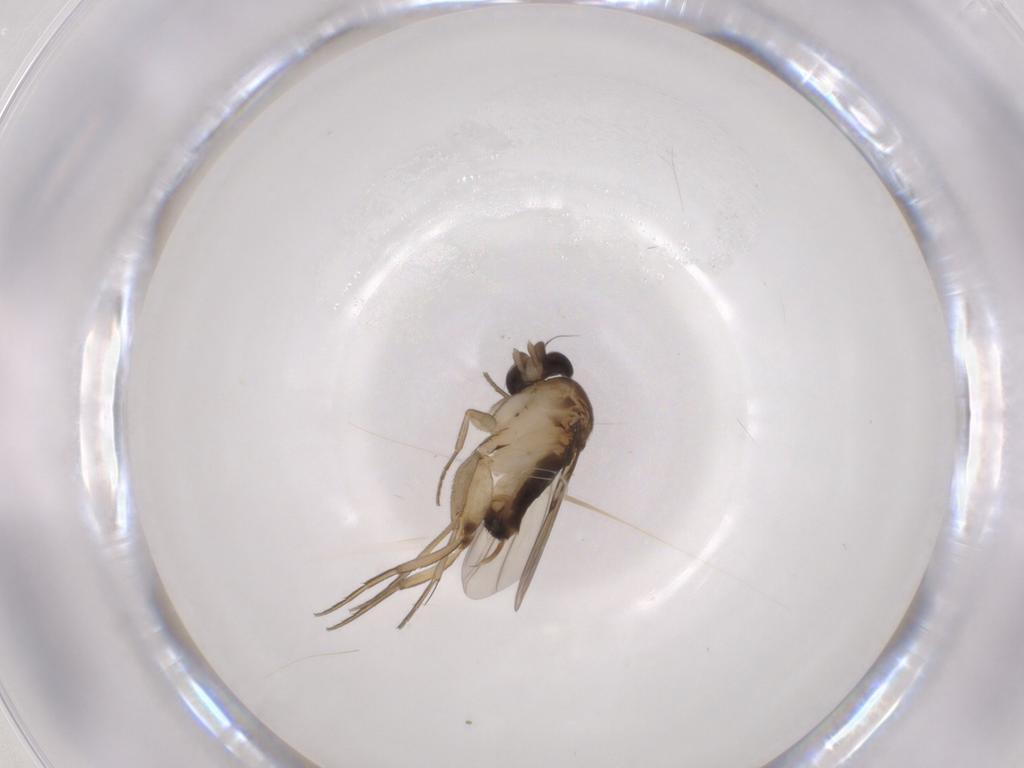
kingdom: Animalia
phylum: Arthropoda
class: Insecta
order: Diptera
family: Phoridae
